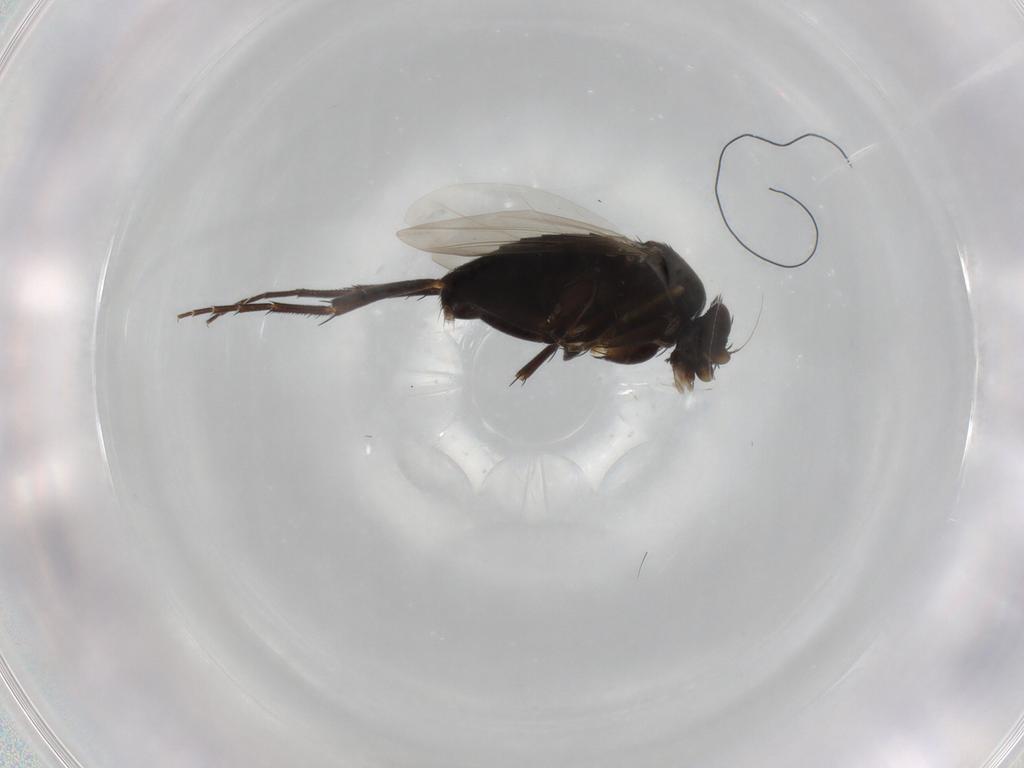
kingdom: Animalia
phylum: Arthropoda
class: Insecta
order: Diptera
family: Phoridae
